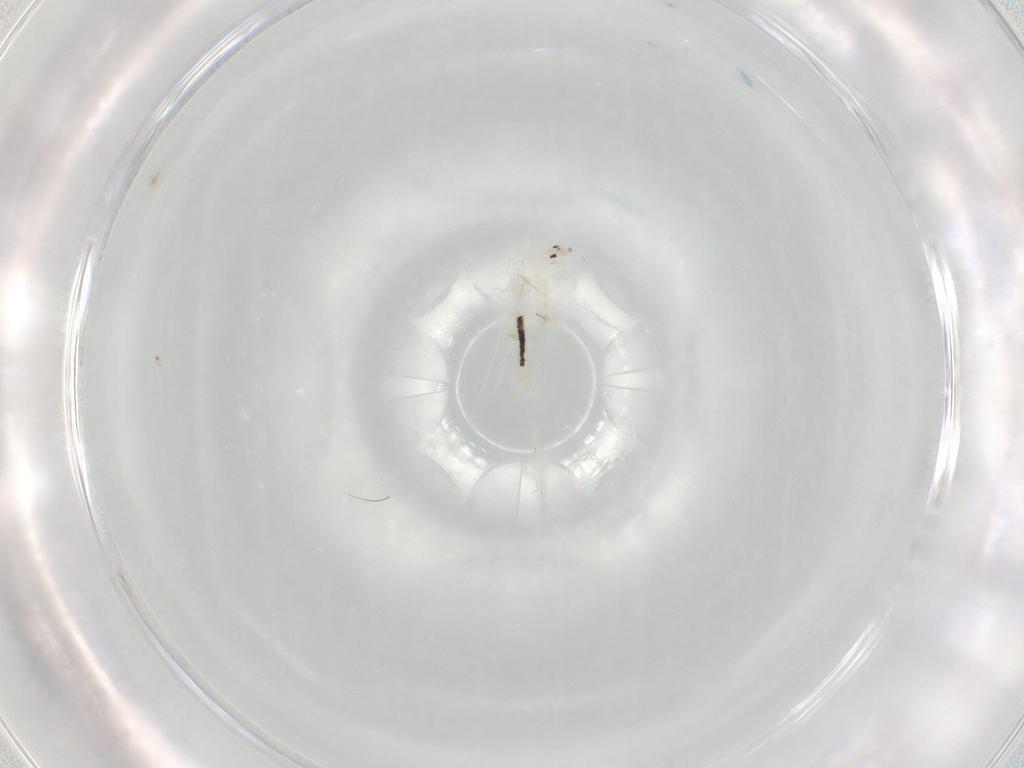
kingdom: Animalia
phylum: Arthropoda
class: Collembola
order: Entomobryomorpha
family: Entomobryidae
